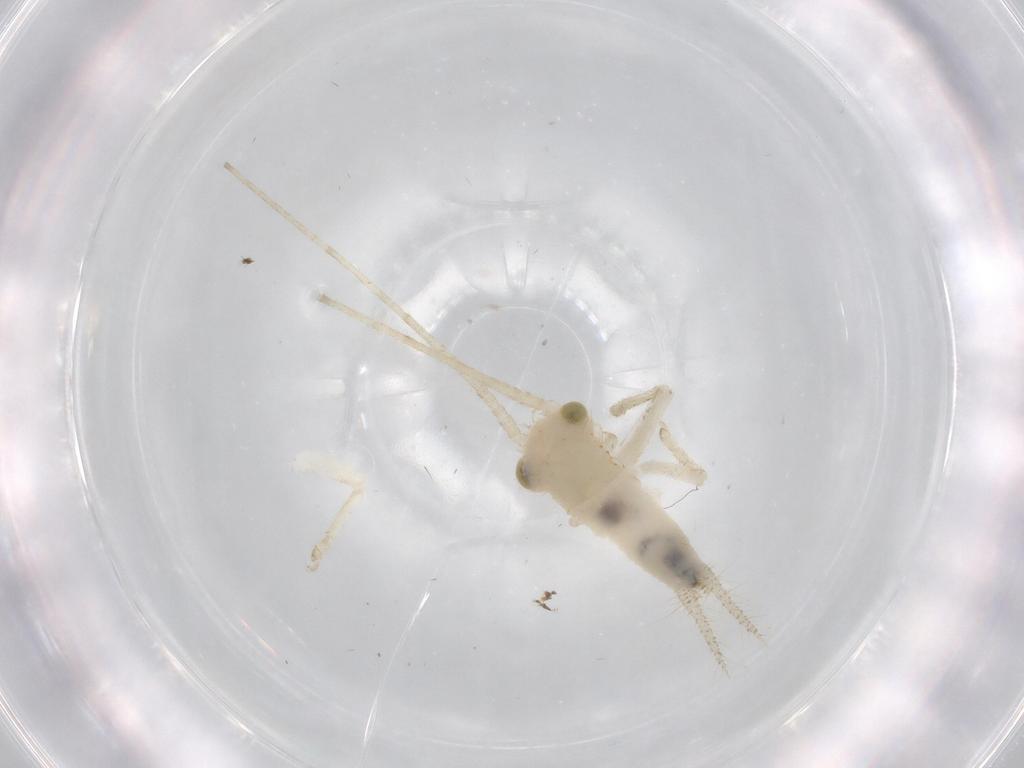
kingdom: Animalia
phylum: Arthropoda
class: Insecta
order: Orthoptera
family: Trigonidiidae
